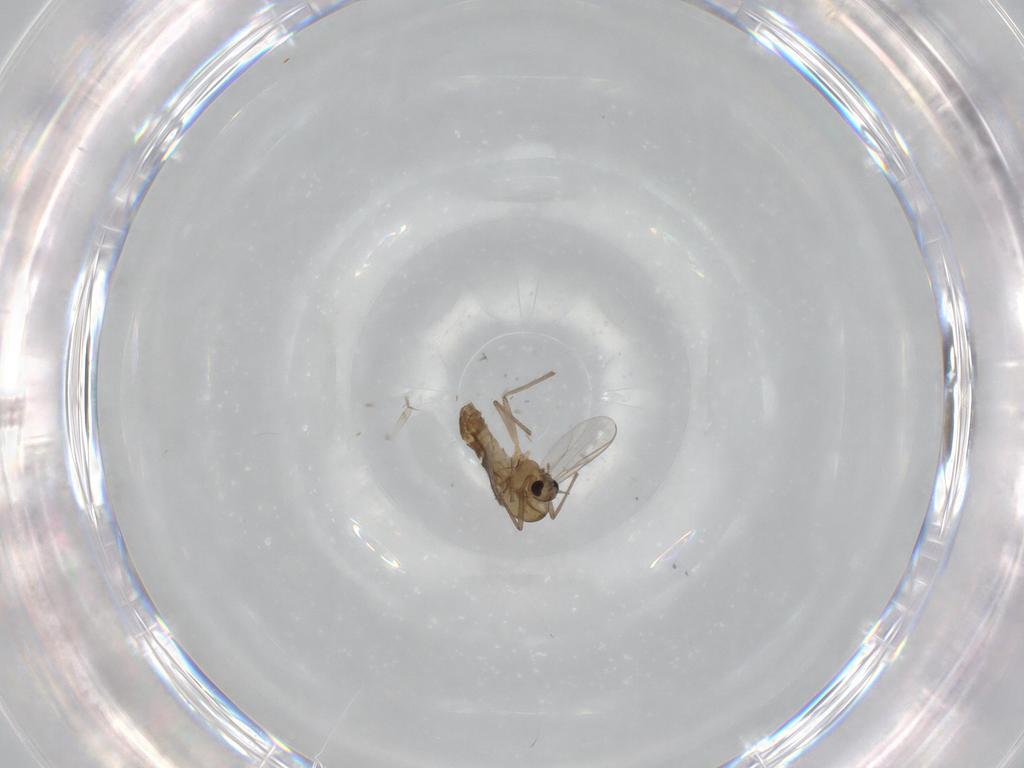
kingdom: Animalia
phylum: Arthropoda
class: Insecta
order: Diptera
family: Chironomidae
